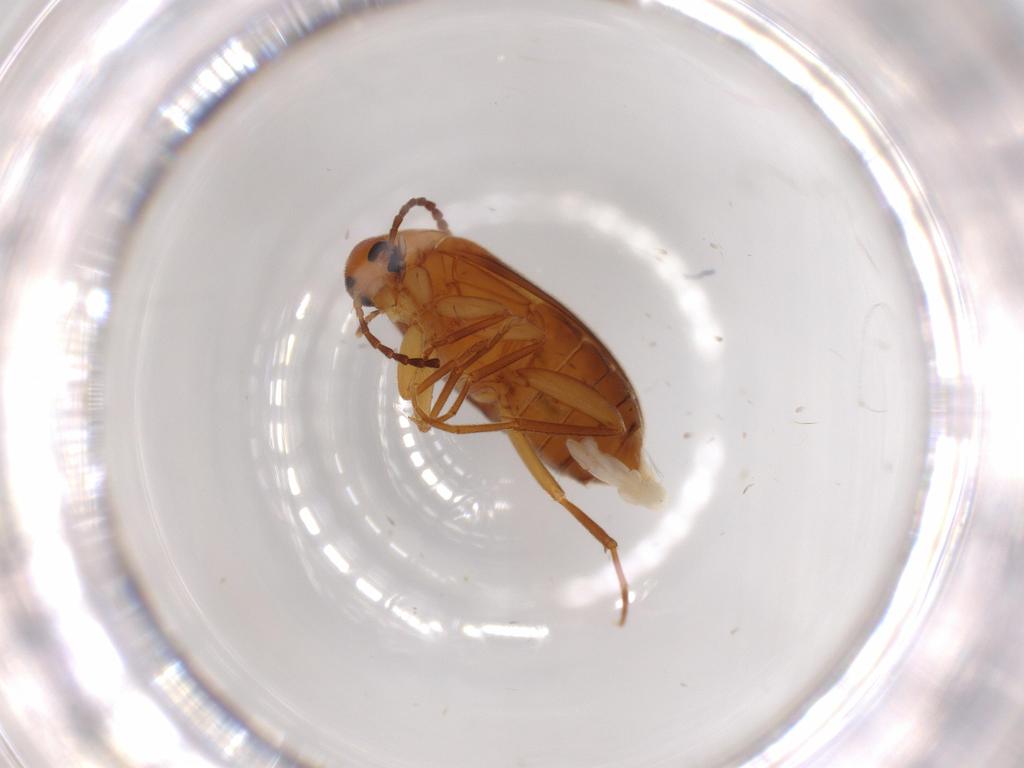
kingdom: Animalia
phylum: Arthropoda
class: Insecta
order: Coleoptera
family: Scraptiidae
